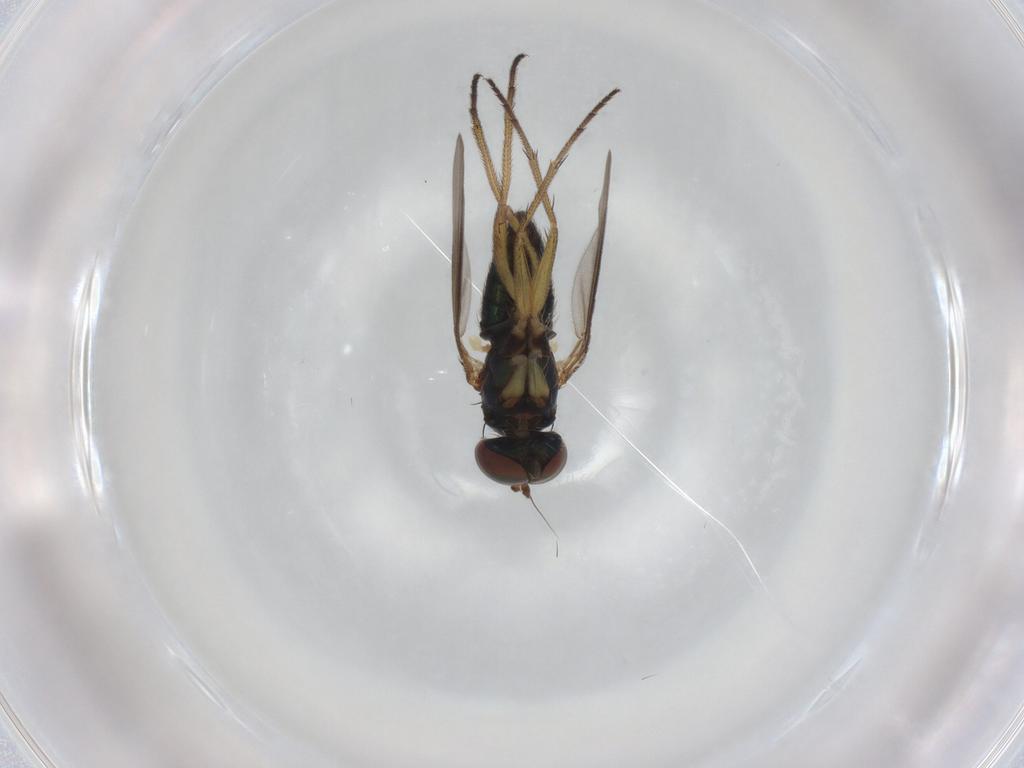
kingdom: Animalia
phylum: Arthropoda
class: Insecta
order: Diptera
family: Dolichopodidae
